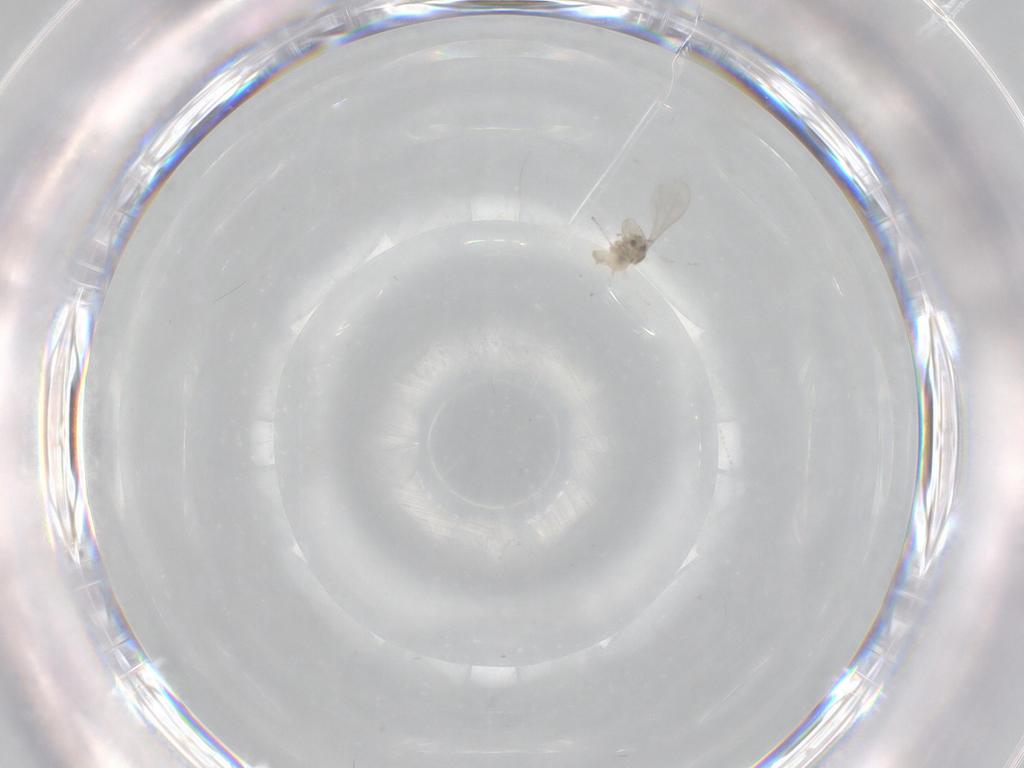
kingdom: Animalia
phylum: Arthropoda
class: Insecta
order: Diptera
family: Cecidomyiidae
